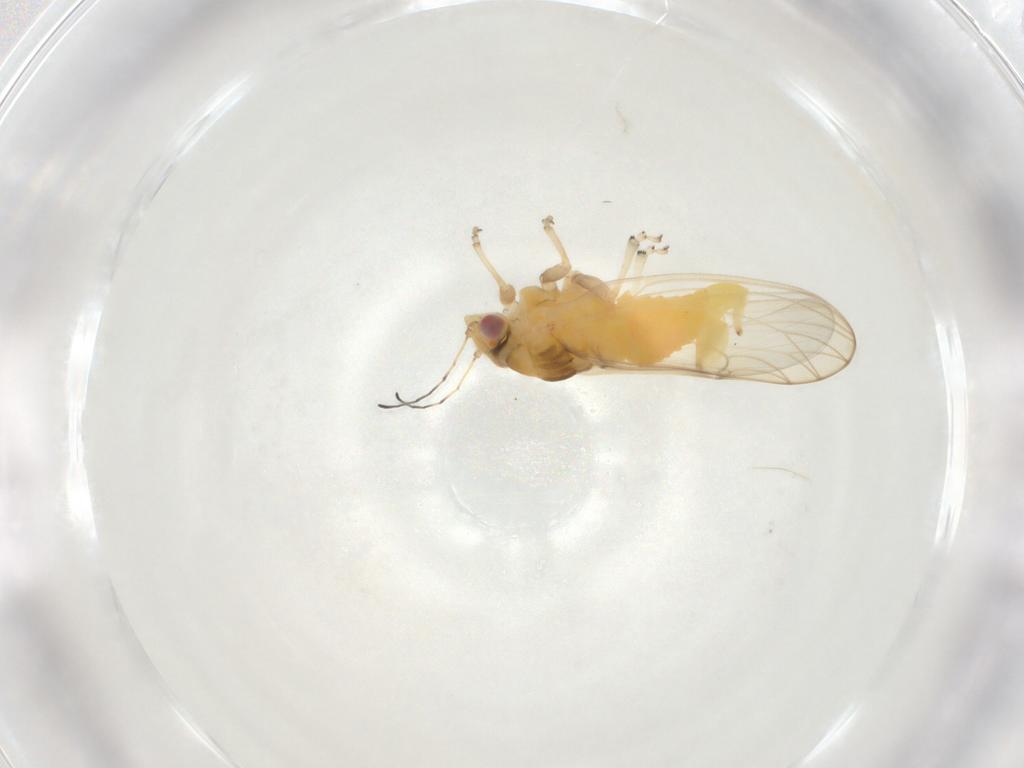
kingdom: Animalia
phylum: Arthropoda
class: Insecta
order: Hemiptera
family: Psylloidea_incertae_sedis
